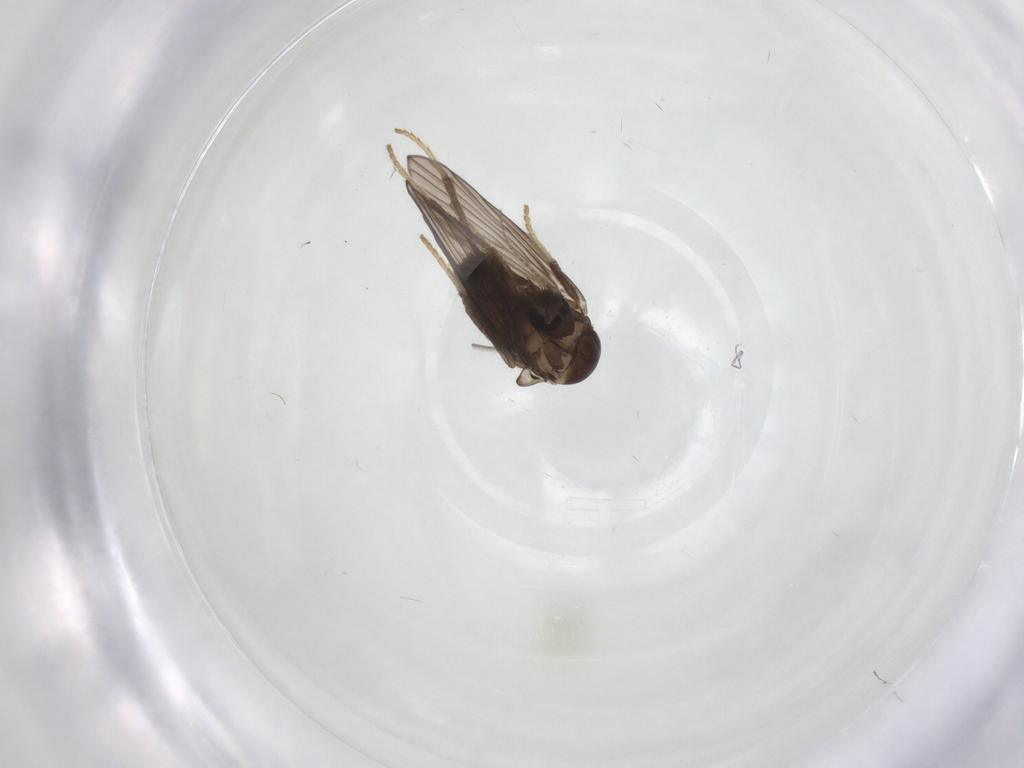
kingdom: Animalia
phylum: Arthropoda
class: Insecta
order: Diptera
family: Psychodidae
